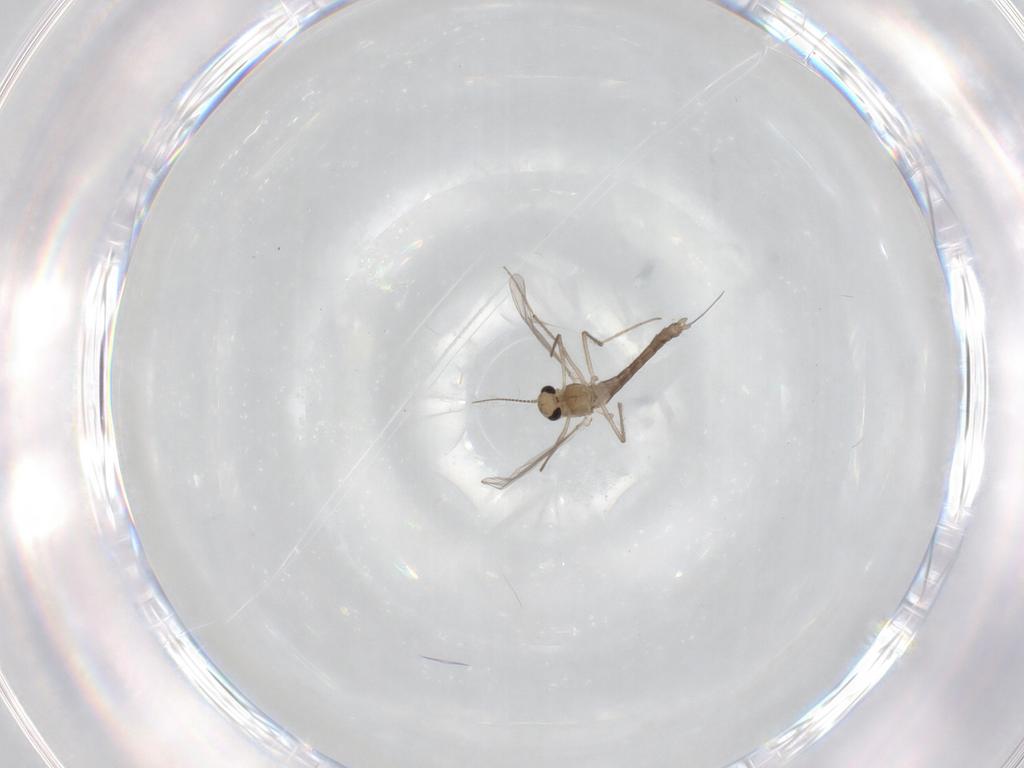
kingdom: Animalia
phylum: Arthropoda
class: Insecta
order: Diptera
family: Chironomidae
